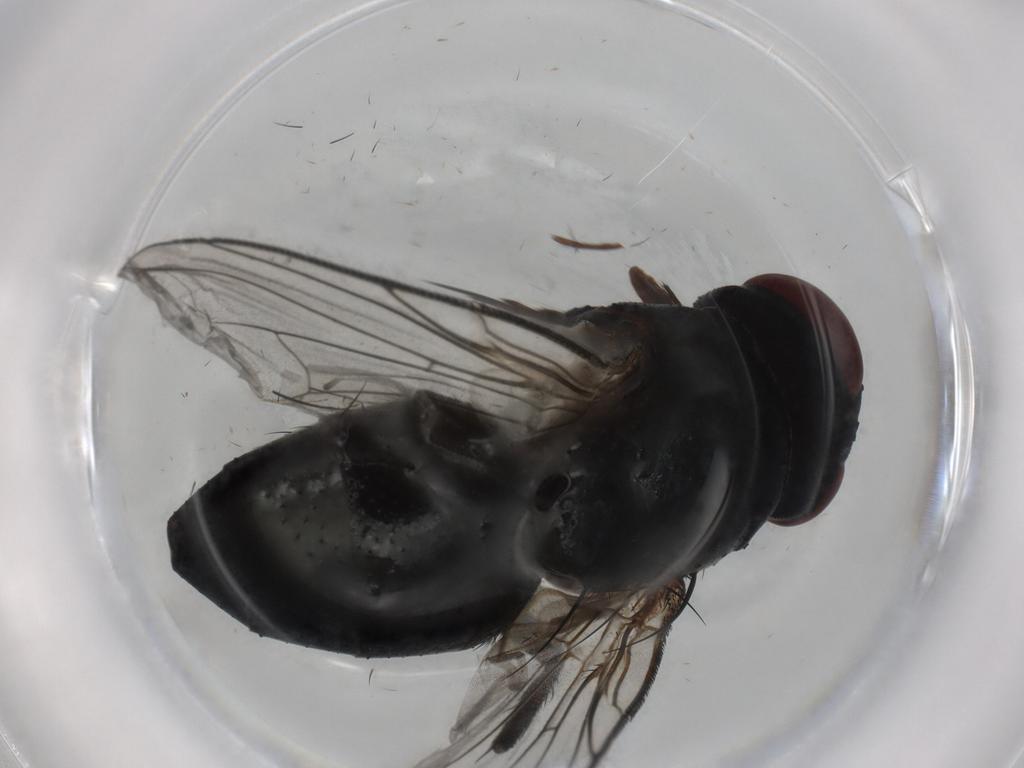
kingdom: Animalia
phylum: Arthropoda
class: Insecta
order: Diptera
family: Tachinidae
